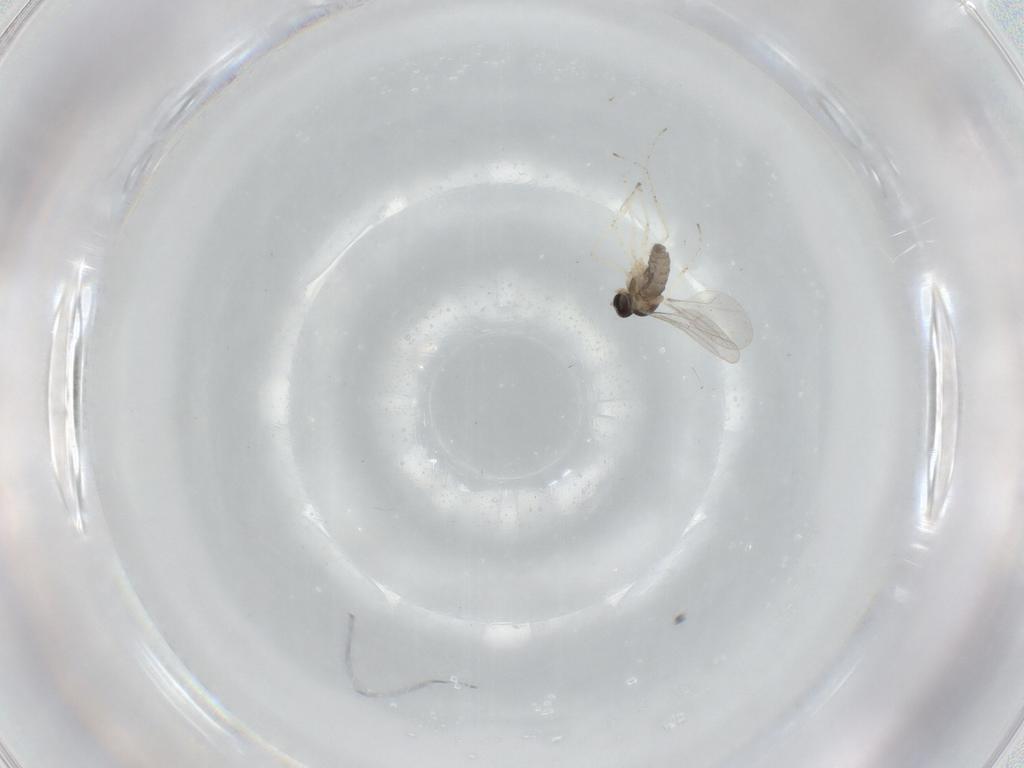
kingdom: Animalia
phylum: Arthropoda
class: Insecta
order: Diptera
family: Cecidomyiidae
